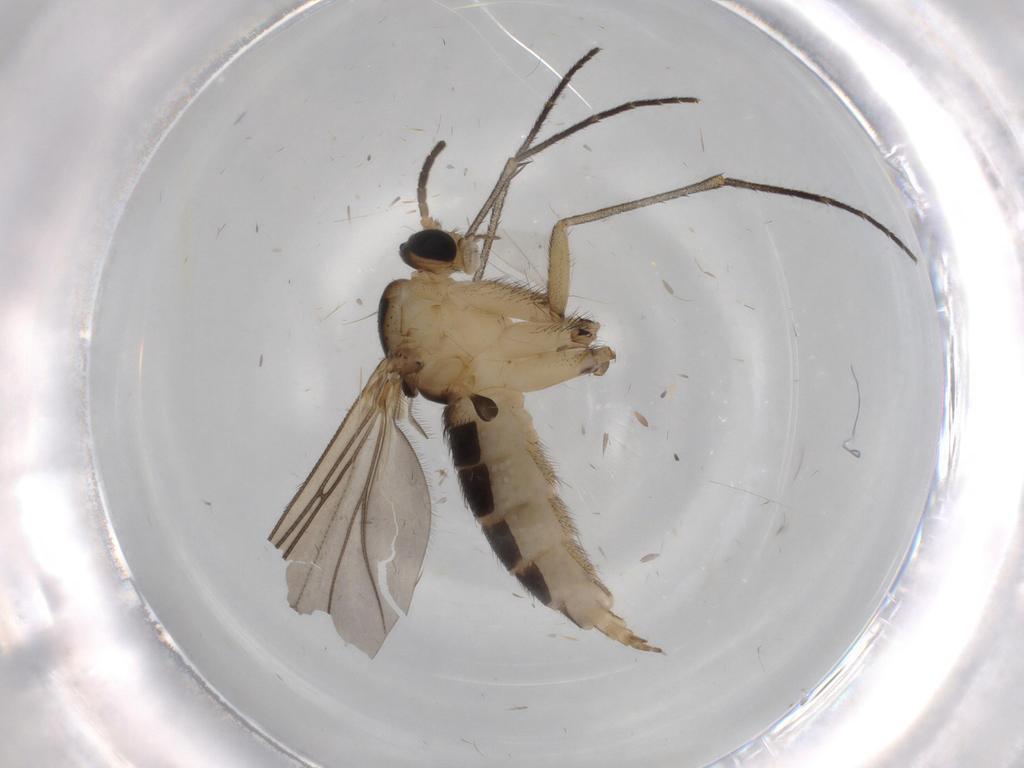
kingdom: Animalia
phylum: Arthropoda
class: Insecta
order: Diptera
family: Sciaridae
